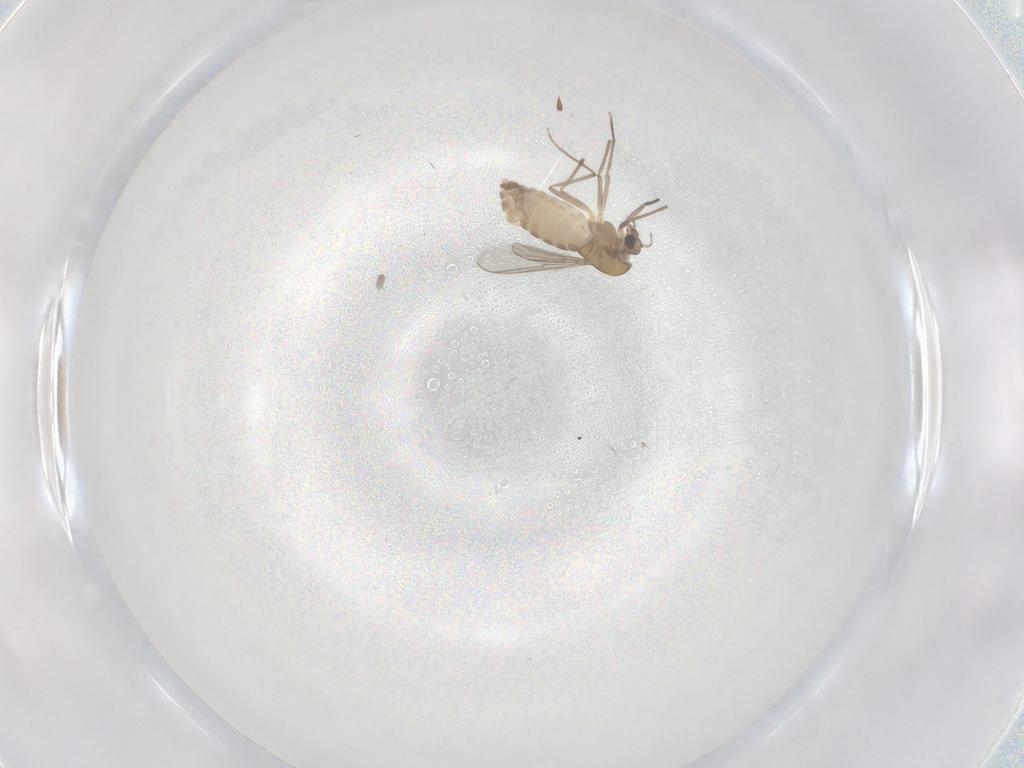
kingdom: Animalia
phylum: Arthropoda
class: Insecta
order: Diptera
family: Chironomidae
